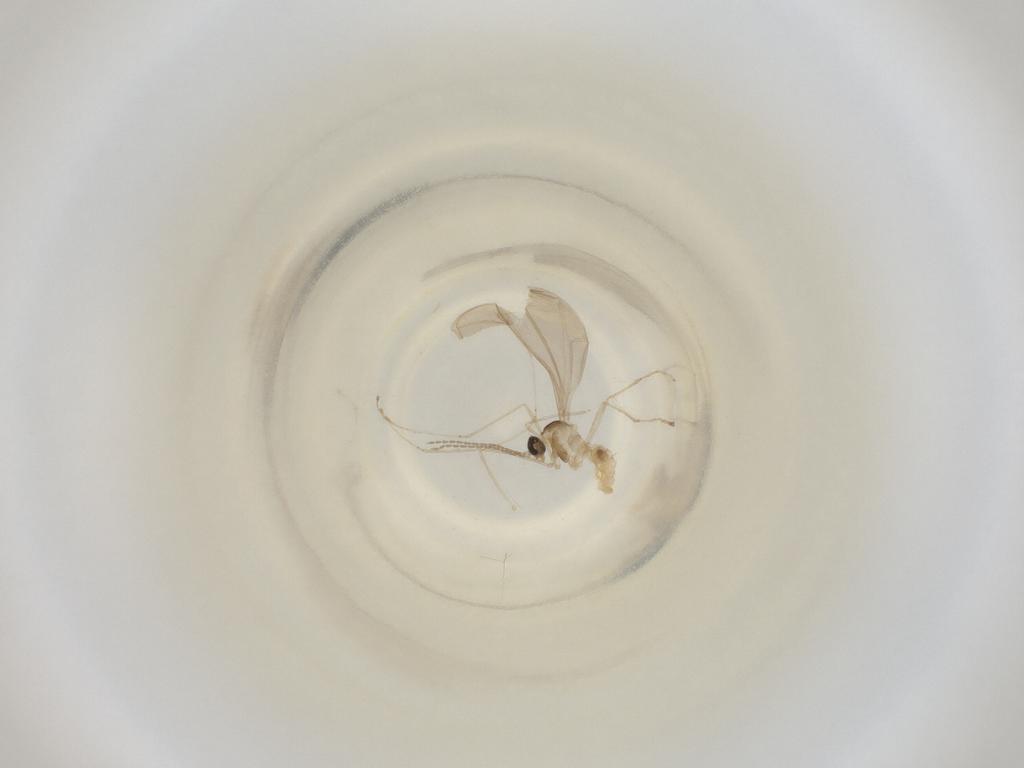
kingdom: Animalia
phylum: Arthropoda
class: Insecta
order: Diptera
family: Cecidomyiidae
